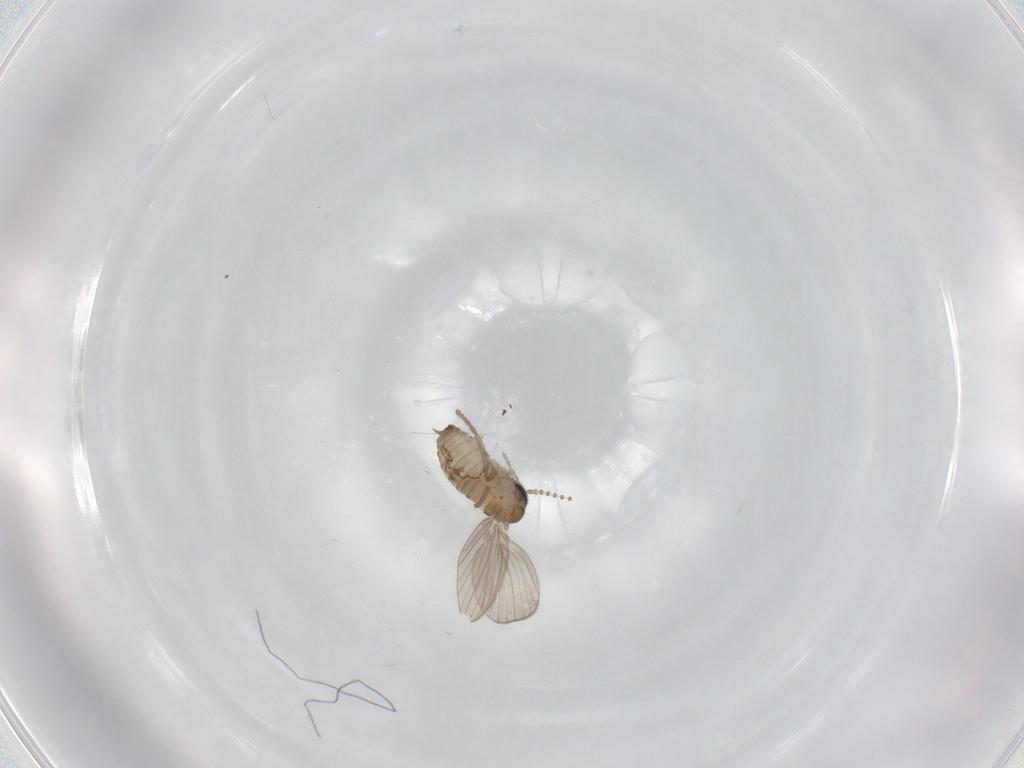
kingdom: Animalia
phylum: Arthropoda
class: Insecta
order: Diptera
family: Psychodidae
